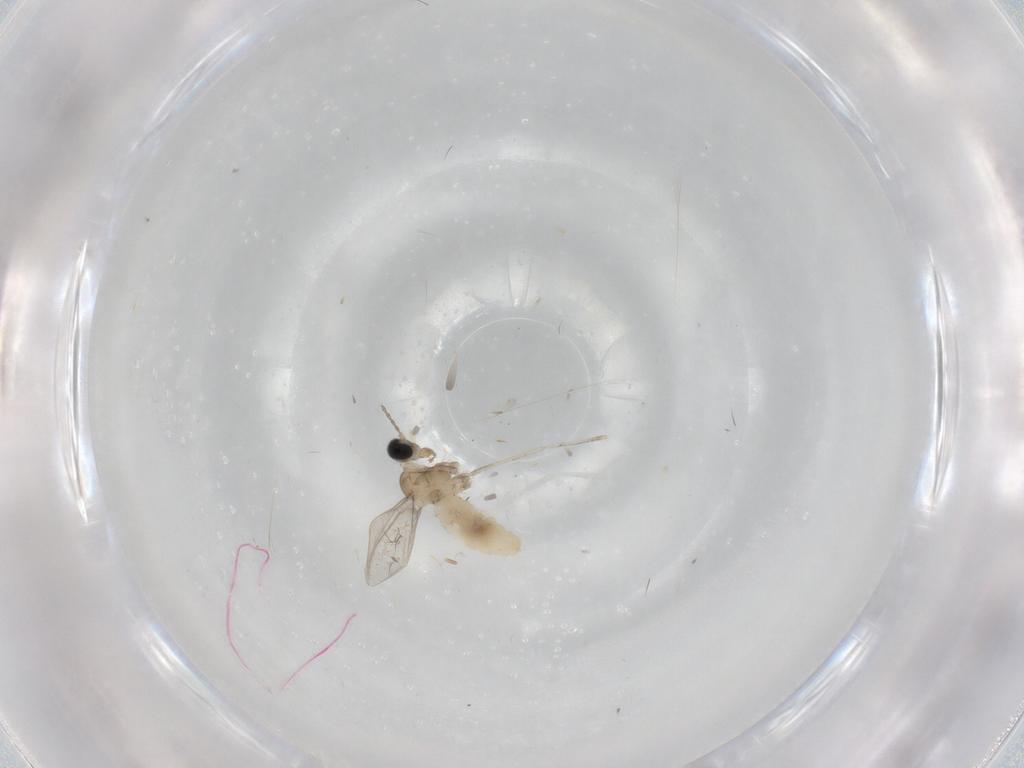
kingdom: Animalia
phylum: Arthropoda
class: Insecta
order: Diptera
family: Cecidomyiidae
